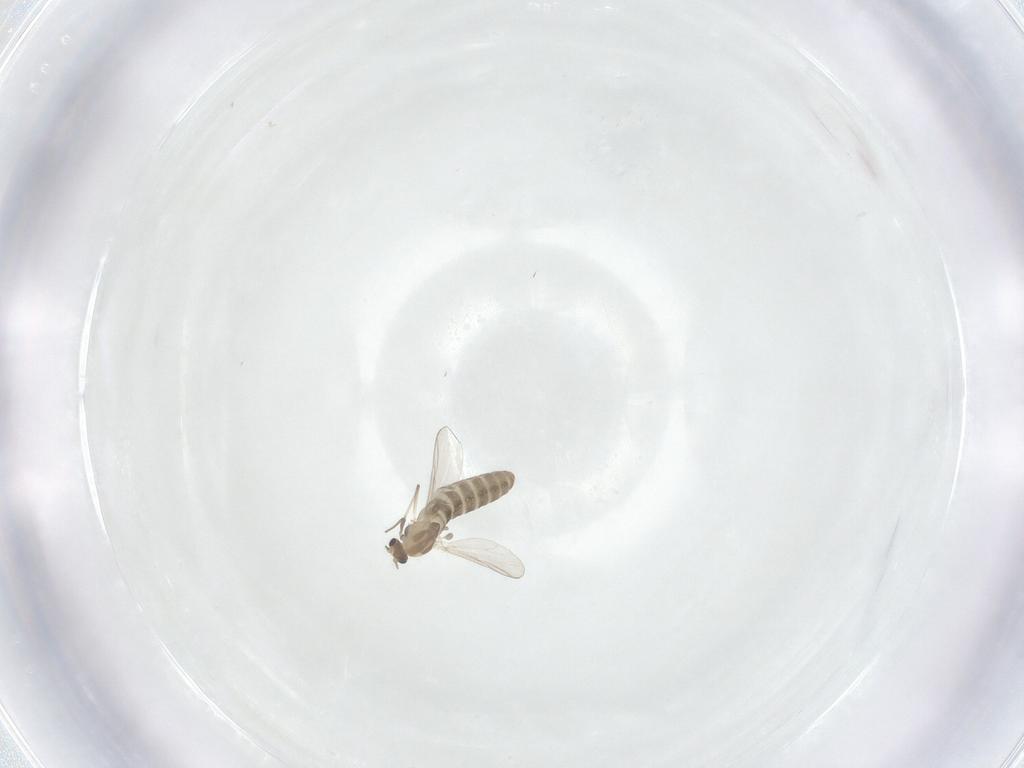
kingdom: Animalia
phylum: Arthropoda
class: Insecta
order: Diptera
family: Chironomidae
